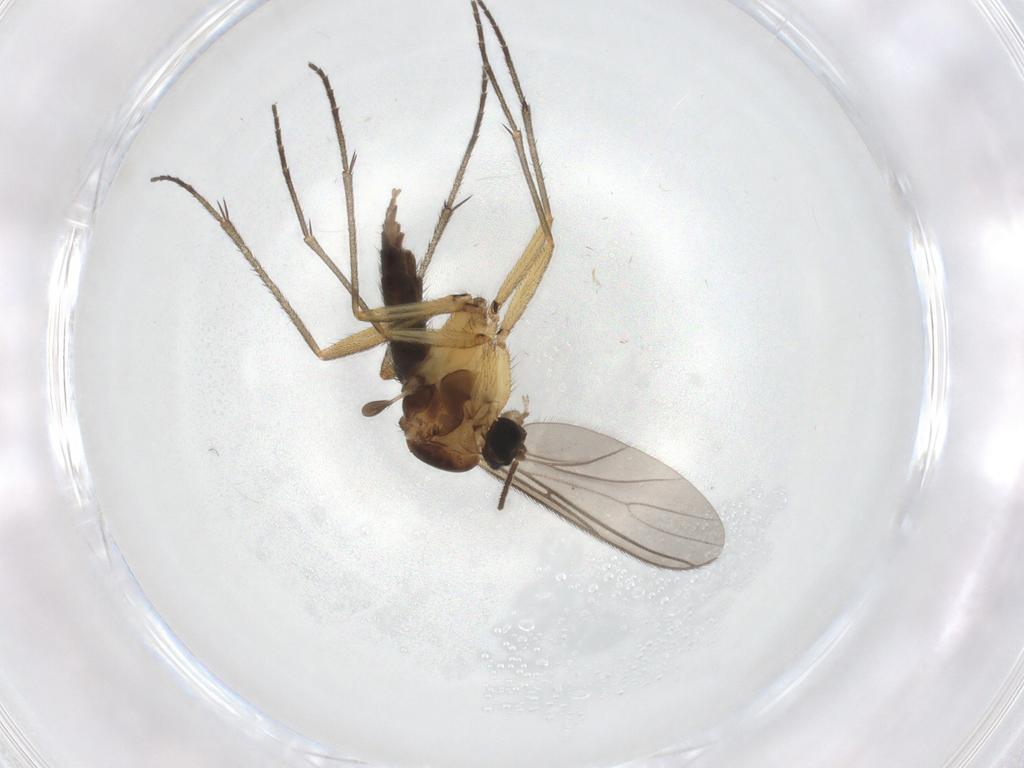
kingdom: Animalia
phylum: Arthropoda
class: Insecta
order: Diptera
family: Sciaridae
